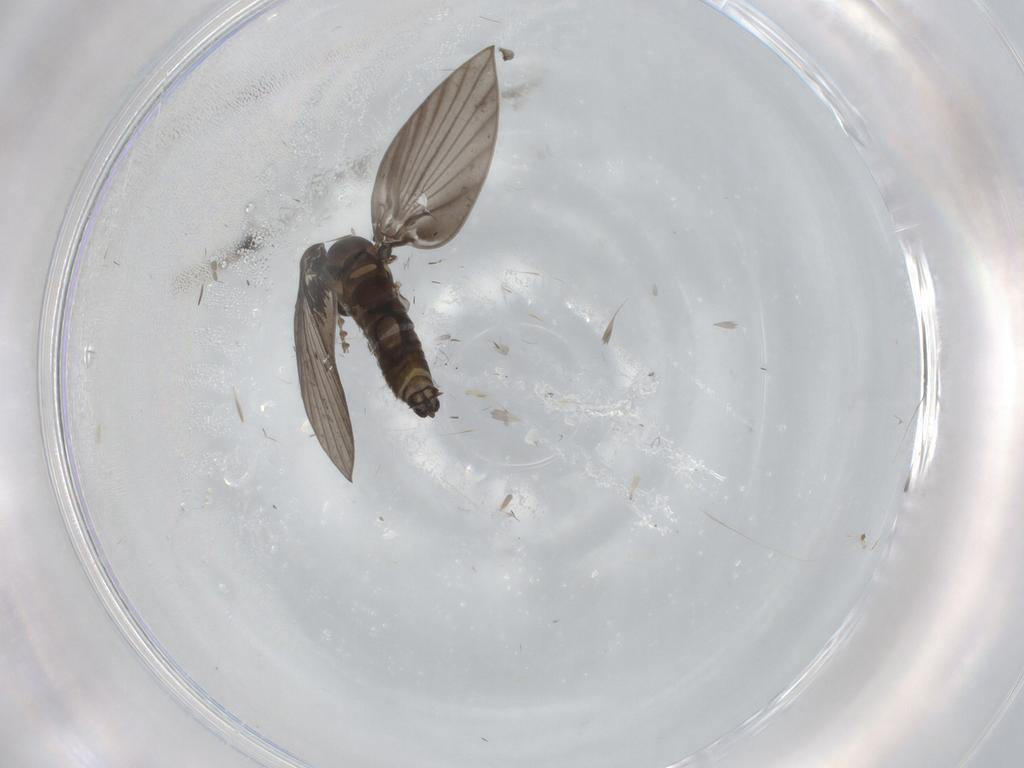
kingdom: Animalia
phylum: Arthropoda
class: Insecta
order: Diptera
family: Psychodidae
